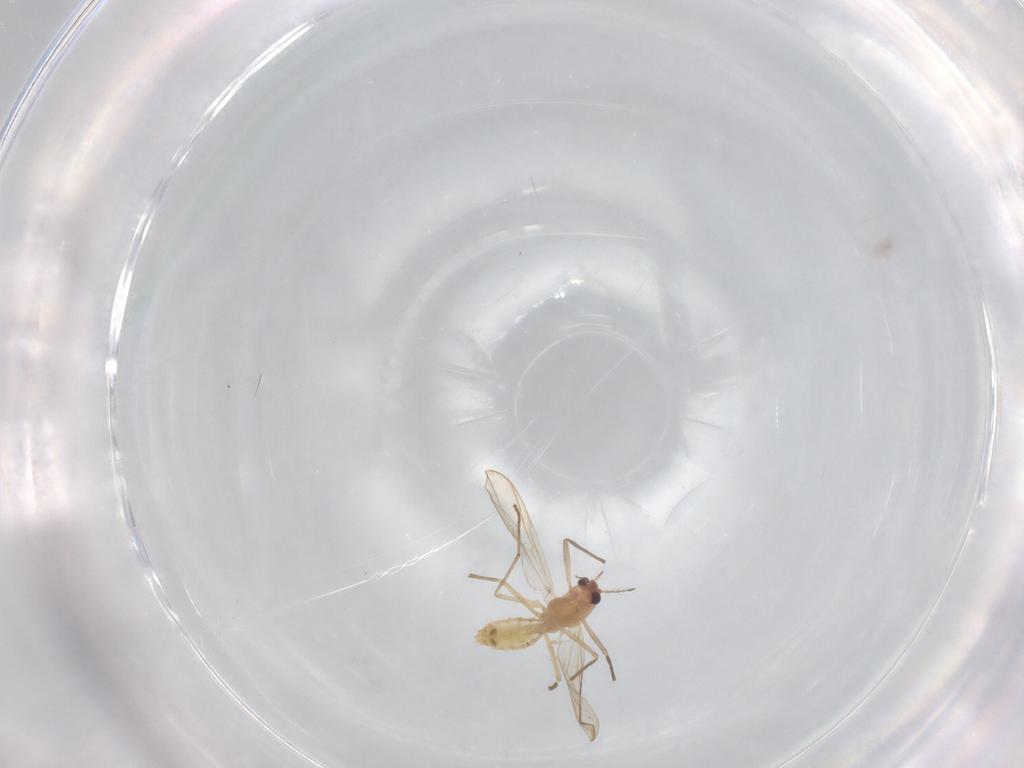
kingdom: Animalia
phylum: Arthropoda
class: Insecta
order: Diptera
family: Chironomidae
